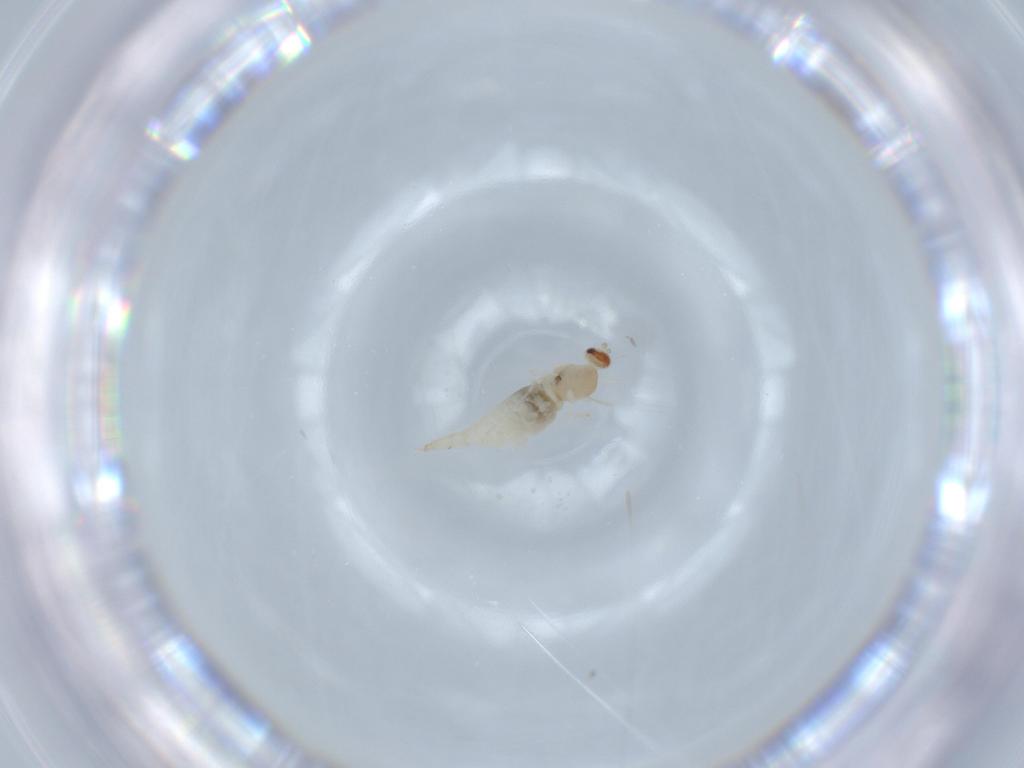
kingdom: Animalia
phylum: Arthropoda
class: Insecta
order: Diptera
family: Cecidomyiidae
